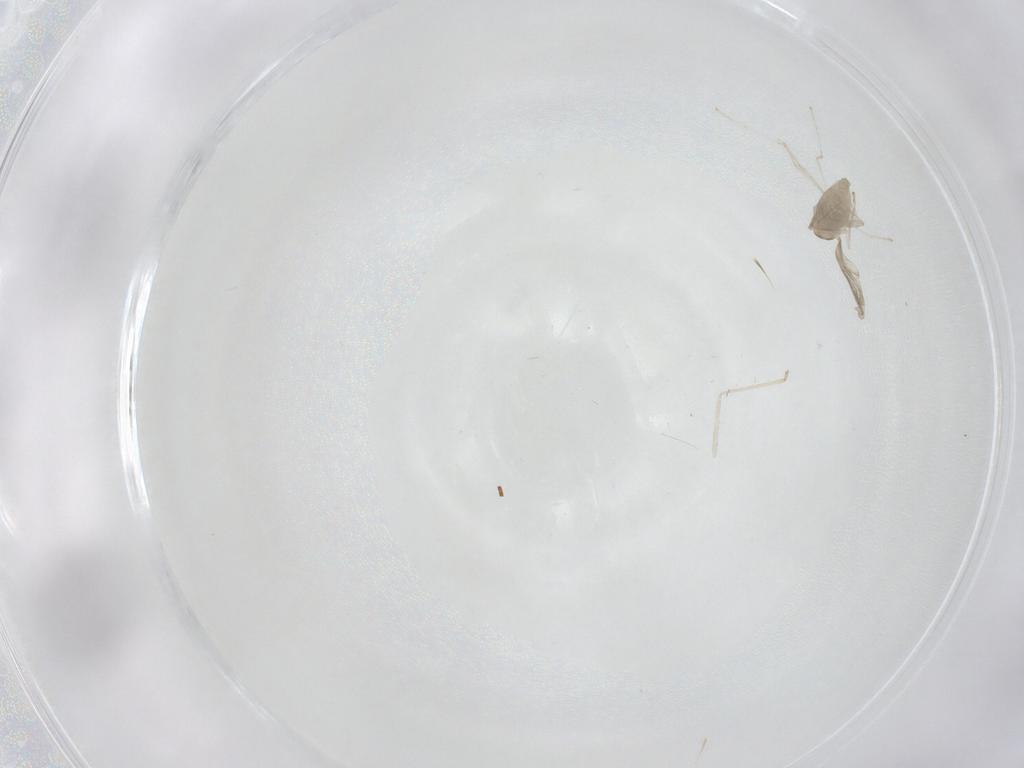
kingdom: Animalia
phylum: Arthropoda
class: Insecta
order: Diptera
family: Cecidomyiidae
